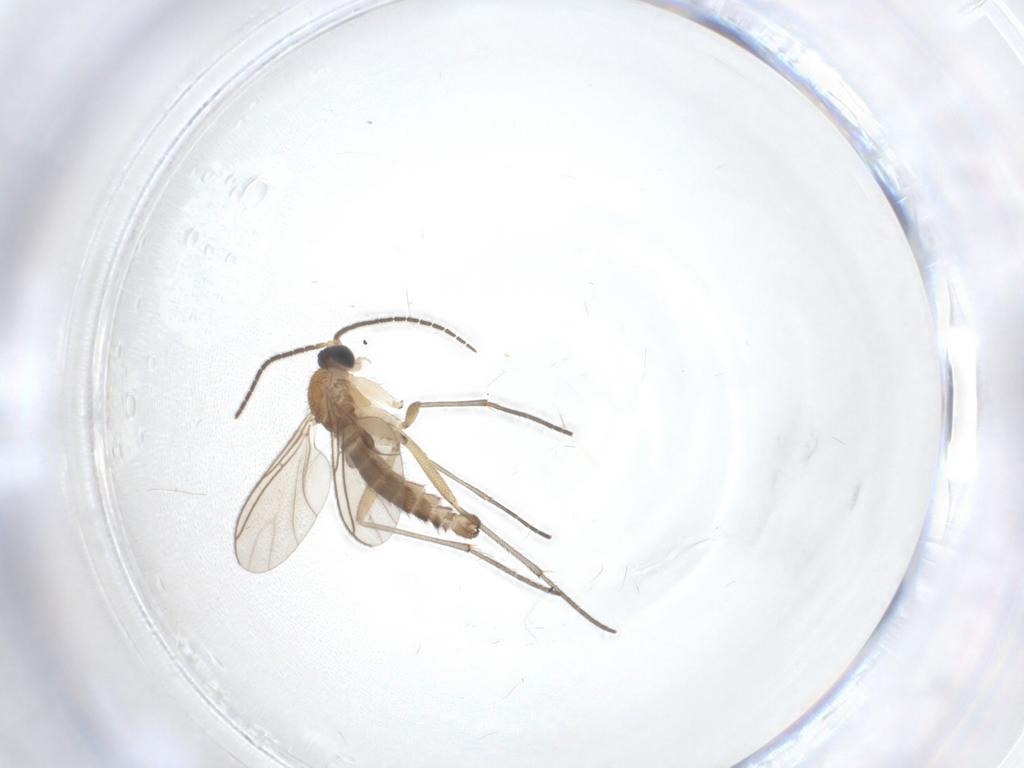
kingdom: Animalia
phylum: Arthropoda
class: Insecta
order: Diptera
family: Sciaridae
